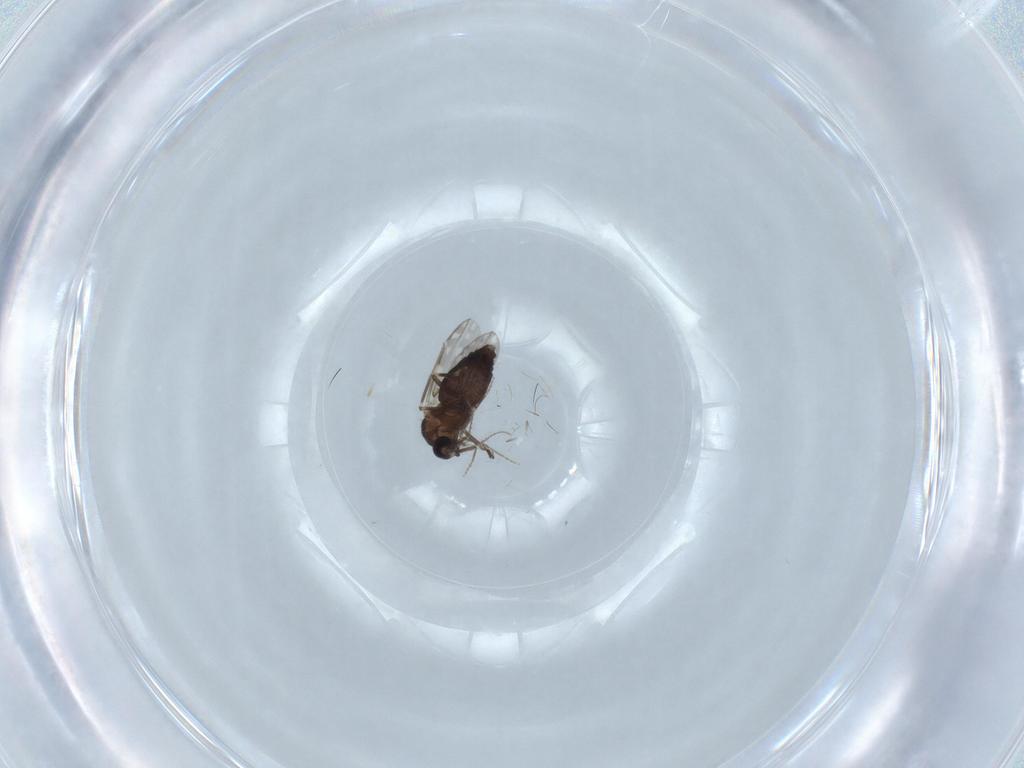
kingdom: Animalia
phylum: Arthropoda
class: Insecta
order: Diptera
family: Ceratopogonidae
